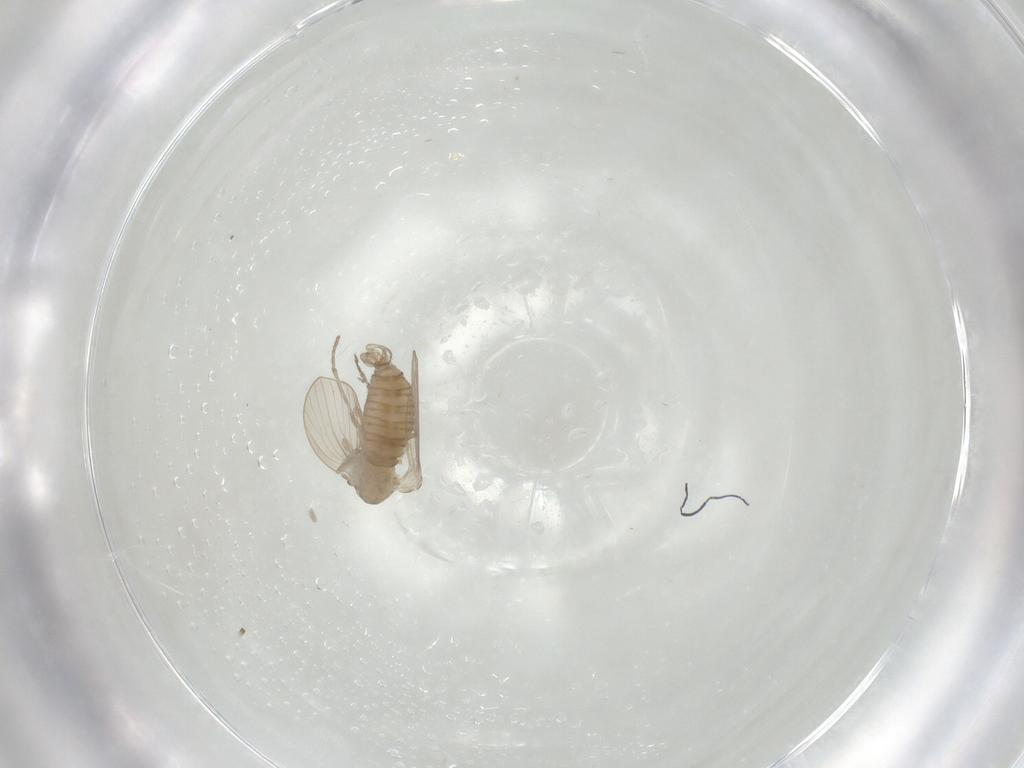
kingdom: Animalia
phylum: Arthropoda
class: Insecta
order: Diptera
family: Psychodidae
